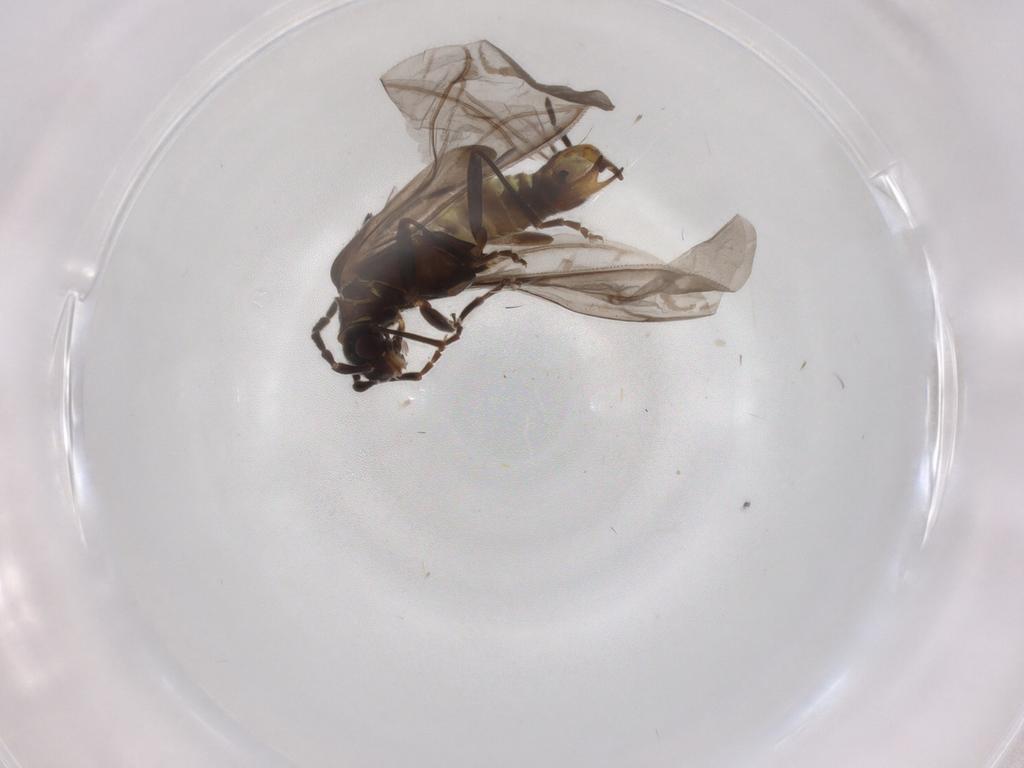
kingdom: Animalia
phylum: Arthropoda
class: Insecta
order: Coleoptera
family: Cantharidae
